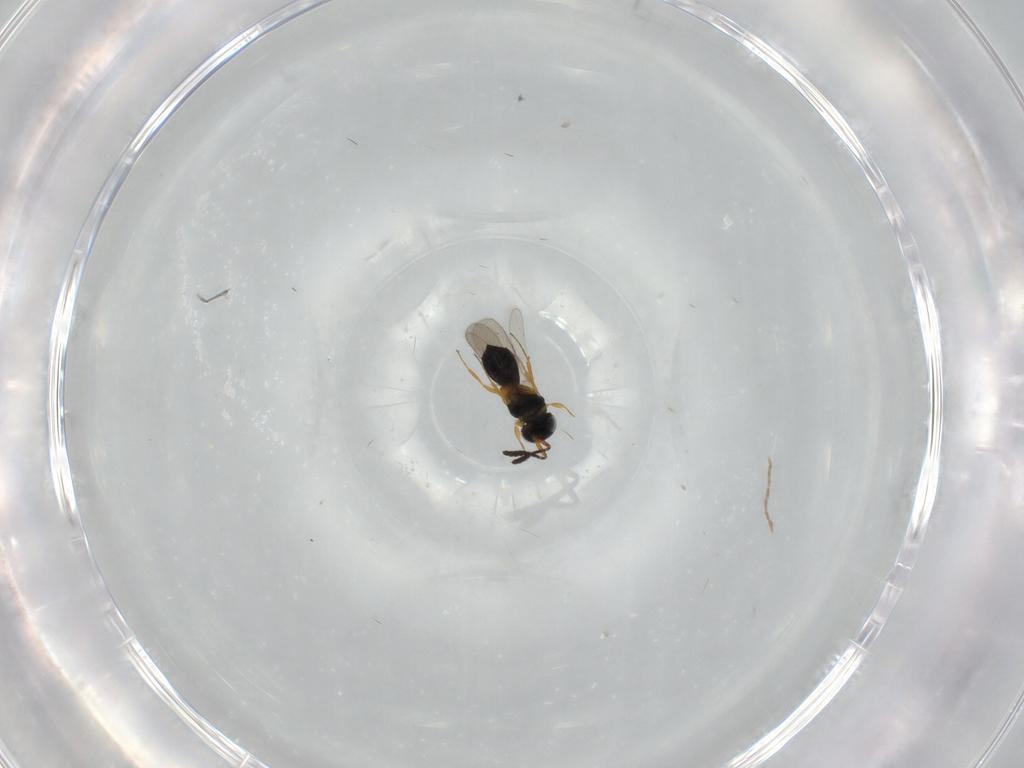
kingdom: Animalia
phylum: Arthropoda
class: Insecta
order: Hymenoptera
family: Scelionidae
